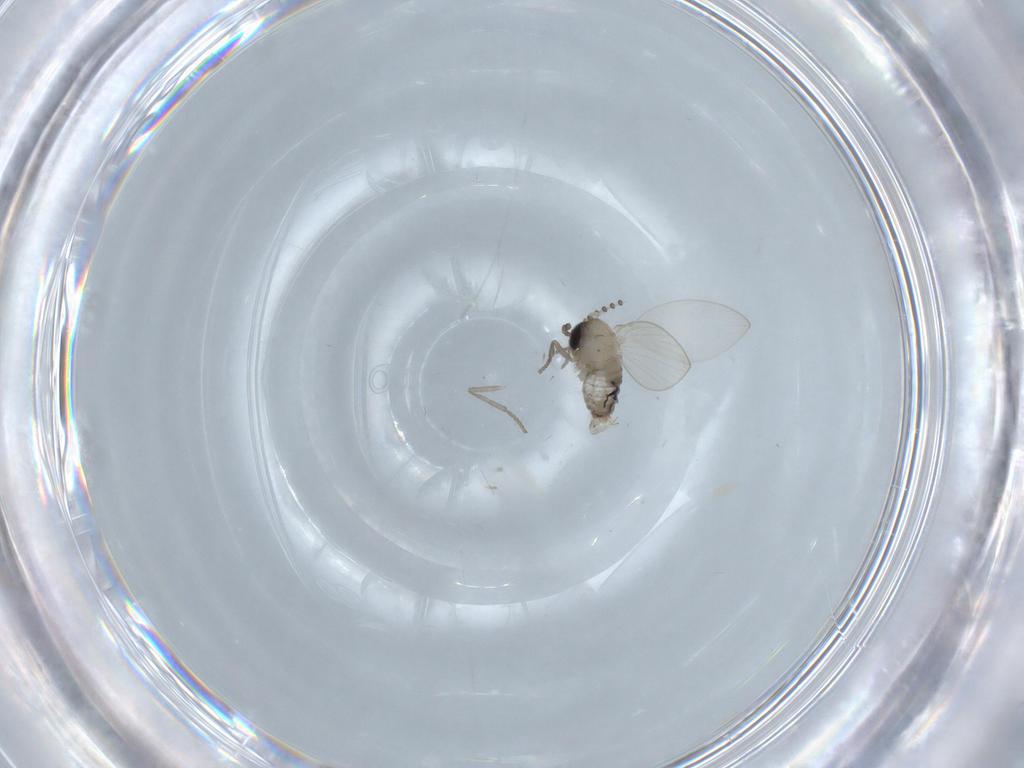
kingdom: Animalia
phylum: Arthropoda
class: Insecta
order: Diptera
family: Psychodidae
